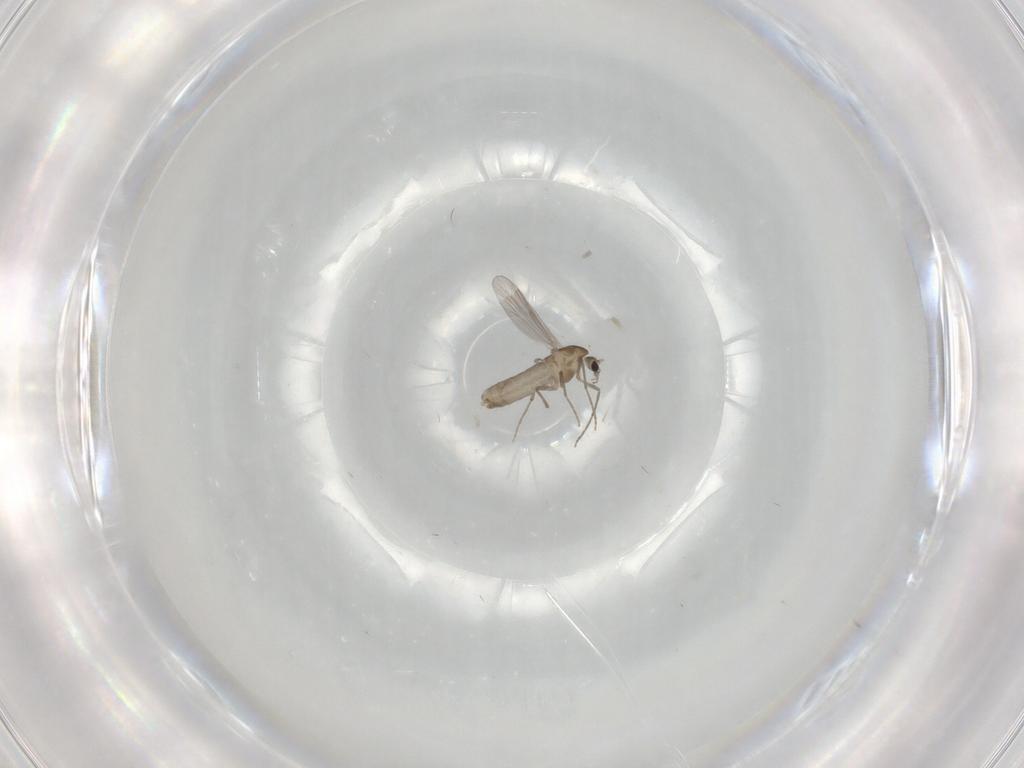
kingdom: Animalia
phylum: Arthropoda
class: Insecta
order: Diptera
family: Chironomidae
